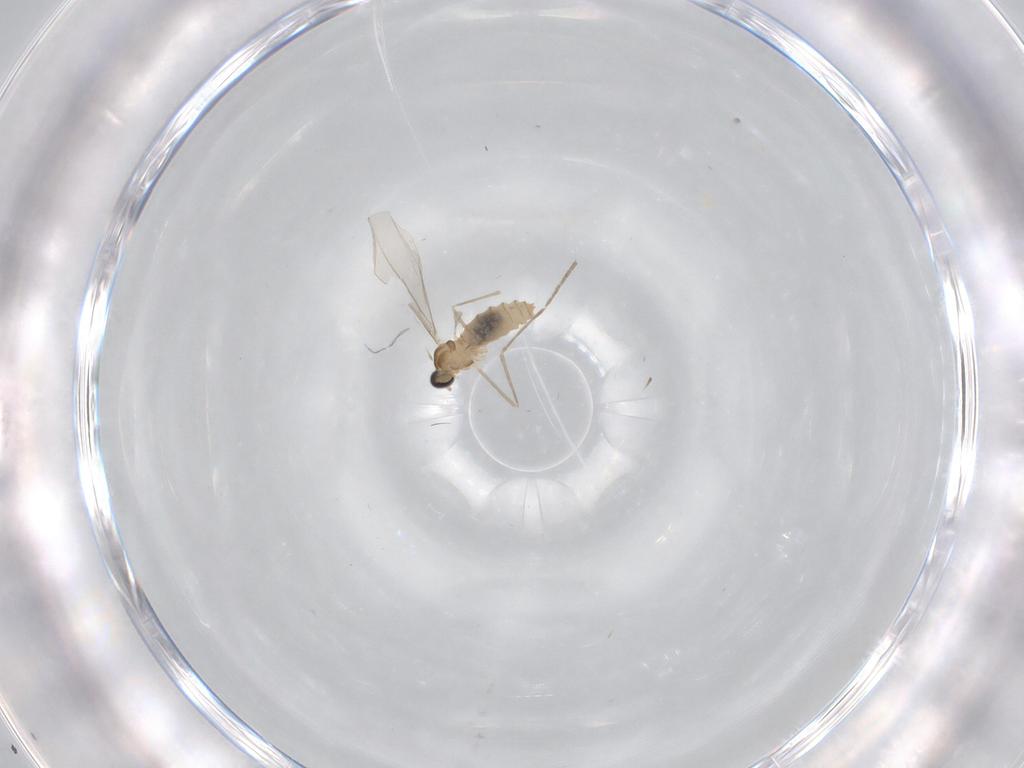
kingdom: Animalia
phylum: Arthropoda
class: Insecta
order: Diptera
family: Cecidomyiidae
